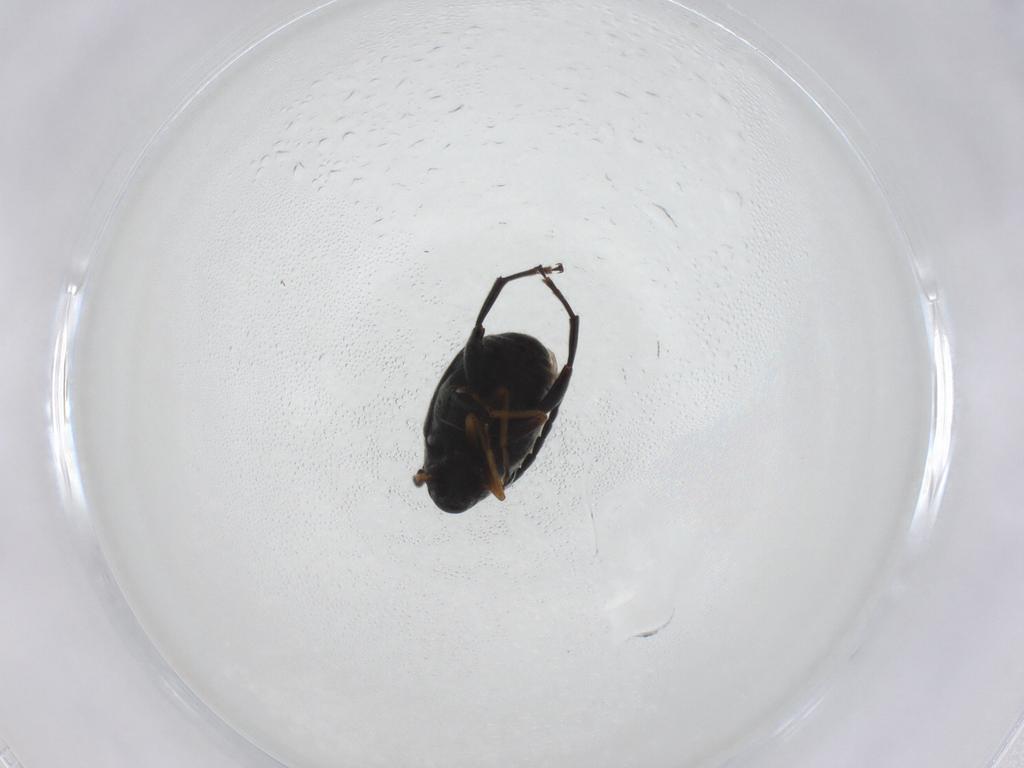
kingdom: Animalia
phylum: Arthropoda
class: Insecta
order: Coleoptera
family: Chrysomelidae
